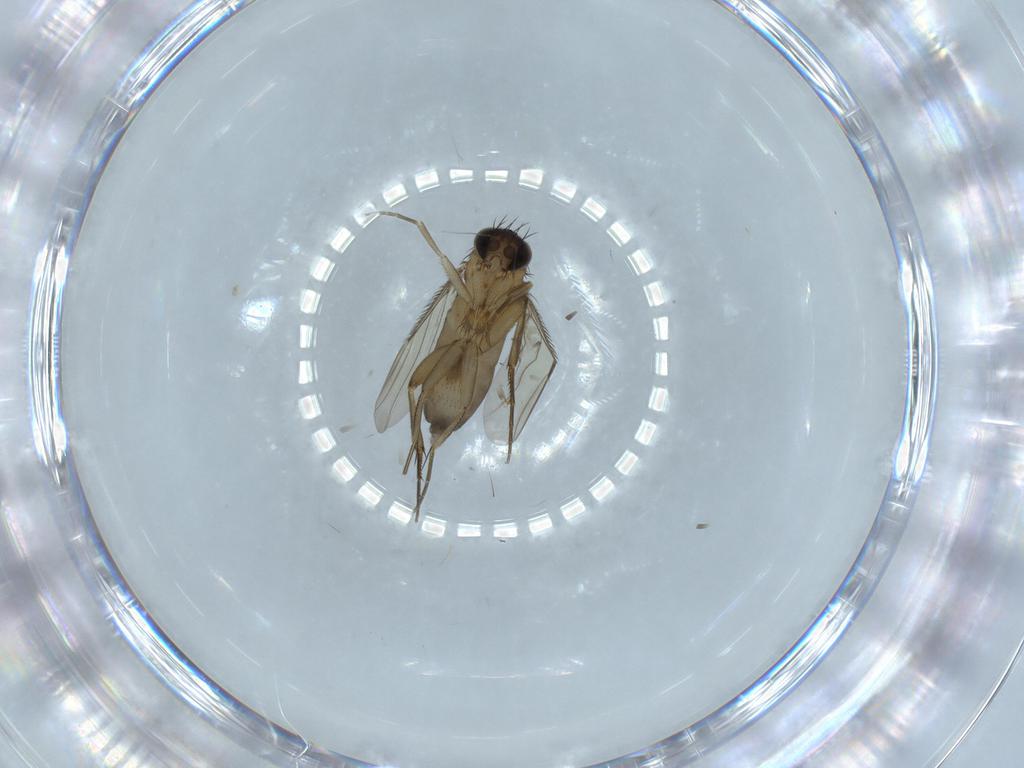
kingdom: Animalia
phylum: Arthropoda
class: Insecta
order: Diptera
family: Phoridae
